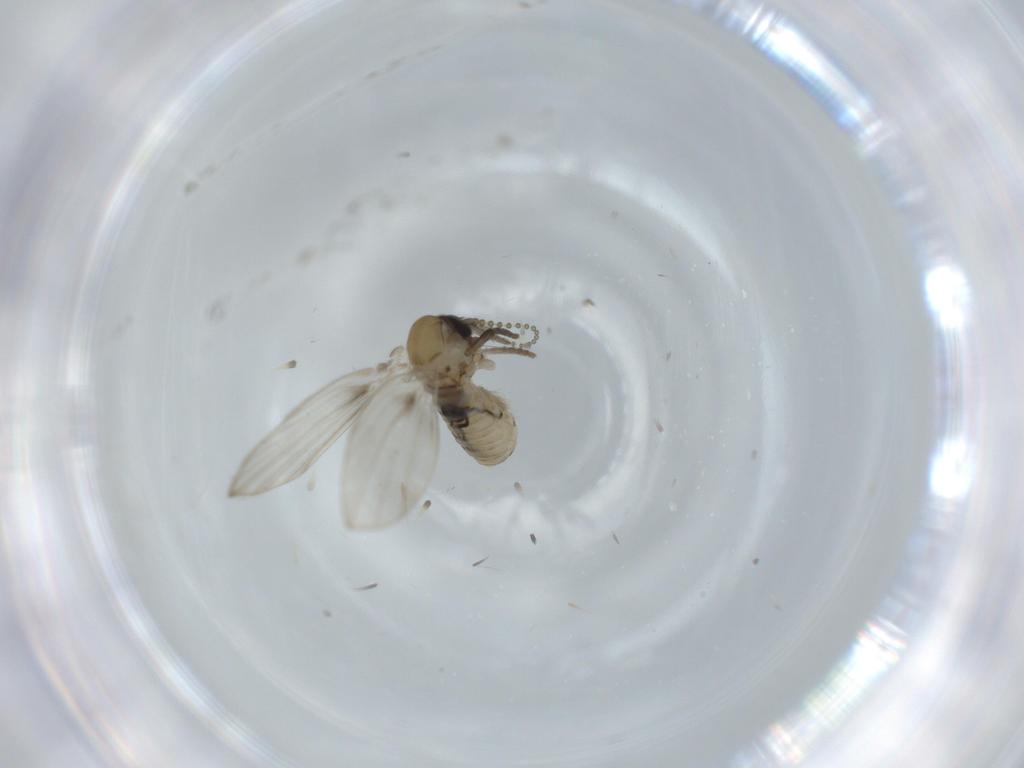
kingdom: Animalia
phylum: Arthropoda
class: Insecta
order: Diptera
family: Psychodidae
